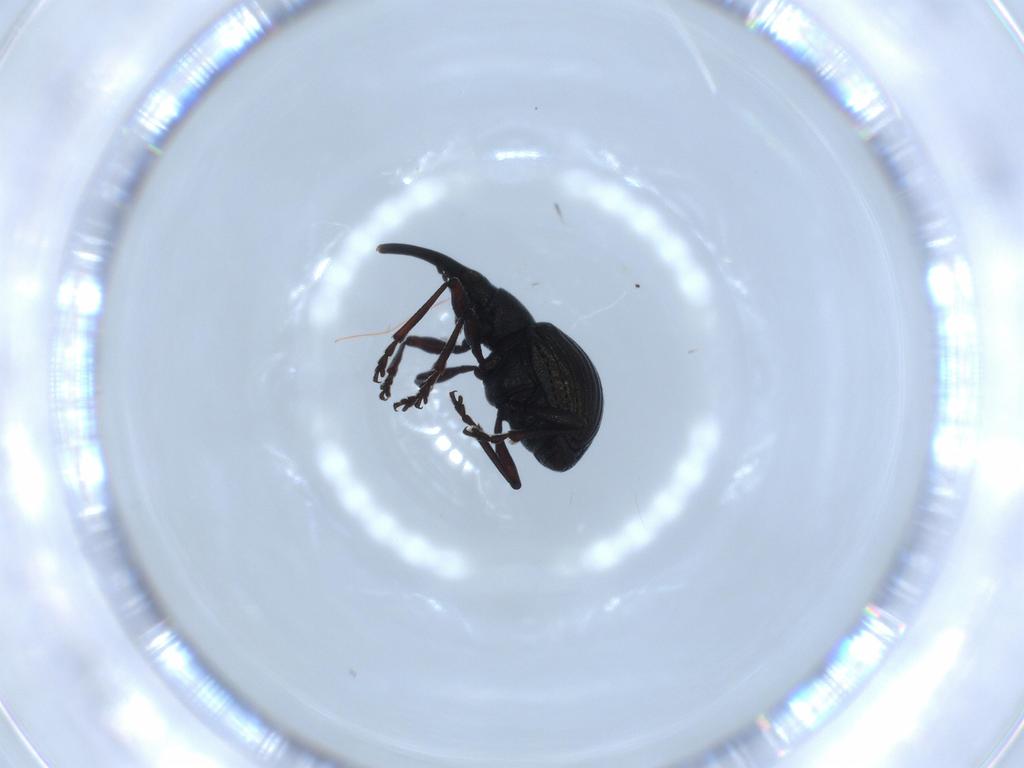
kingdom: Animalia
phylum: Arthropoda
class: Insecta
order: Coleoptera
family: Brentidae
